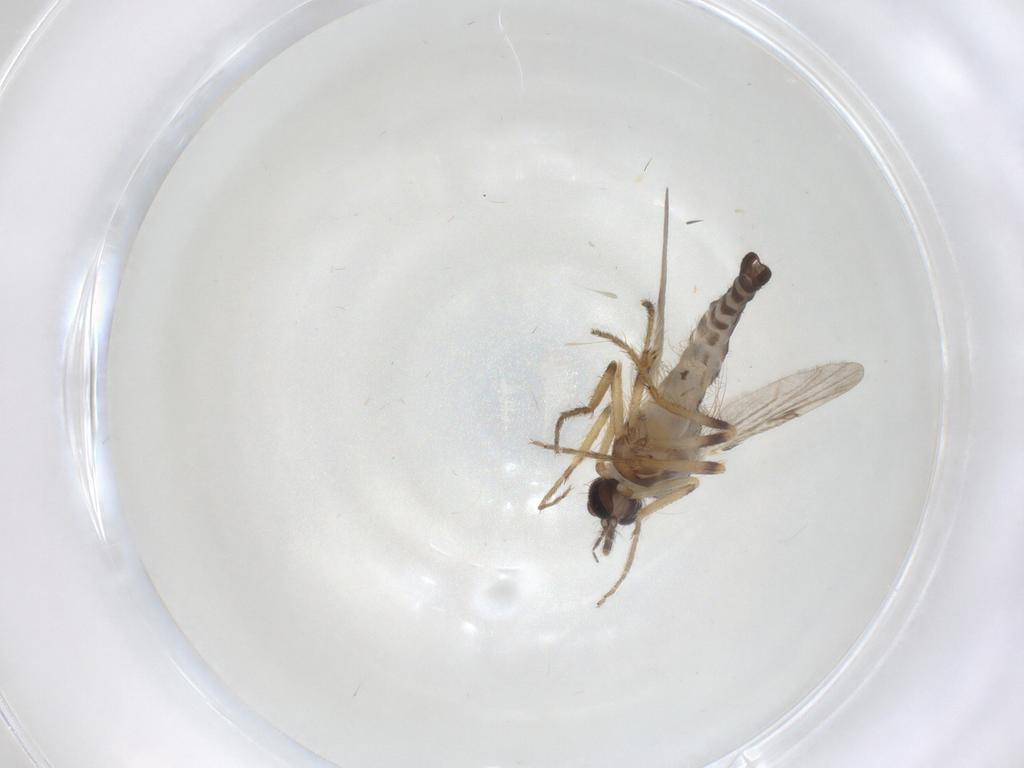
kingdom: Animalia
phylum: Arthropoda
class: Insecta
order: Diptera
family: Ceratopogonidae
